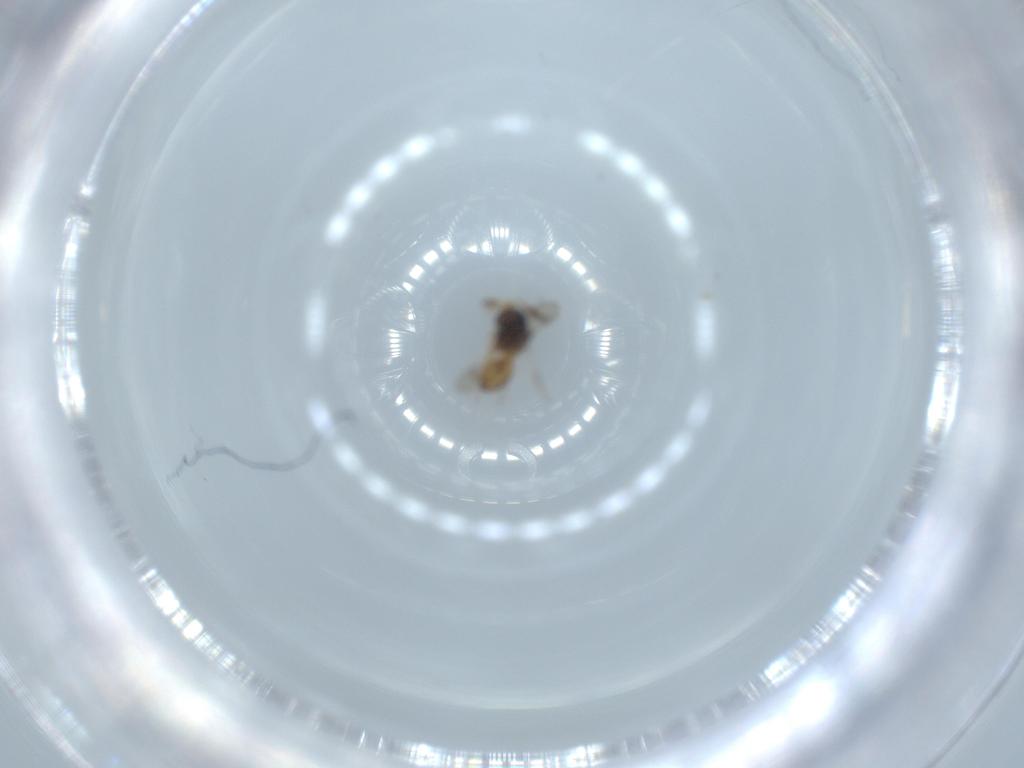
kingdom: Animalia
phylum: Arthropoda
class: Insecta
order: Hymenoptera
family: Scelionidae
